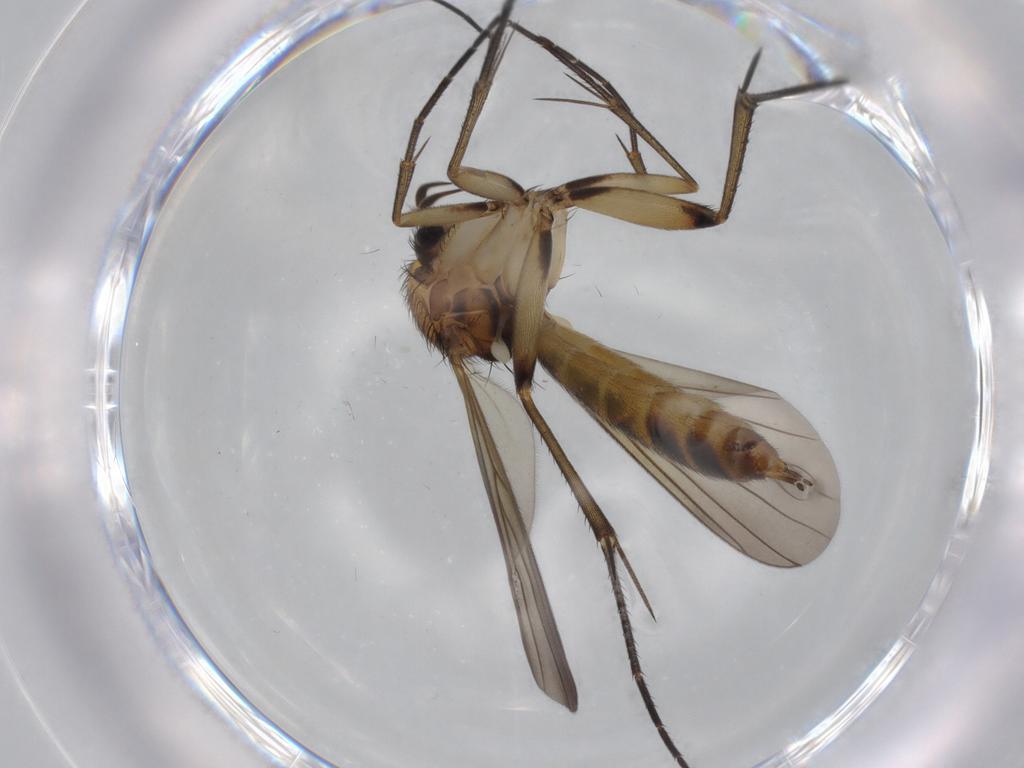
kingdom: Animalia
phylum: Arthropoda
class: Insecta
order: Diptera
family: Mycetophilidae
